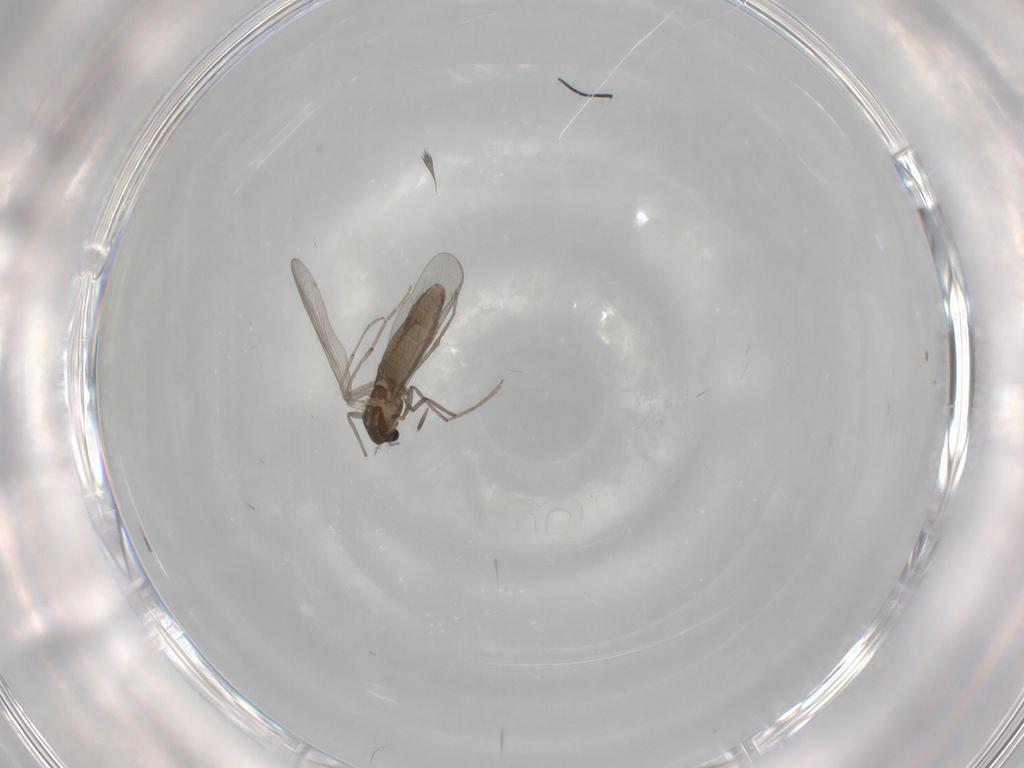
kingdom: Animalia
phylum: Arthropoda
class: Insecta
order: Diptera
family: Chironomidae
